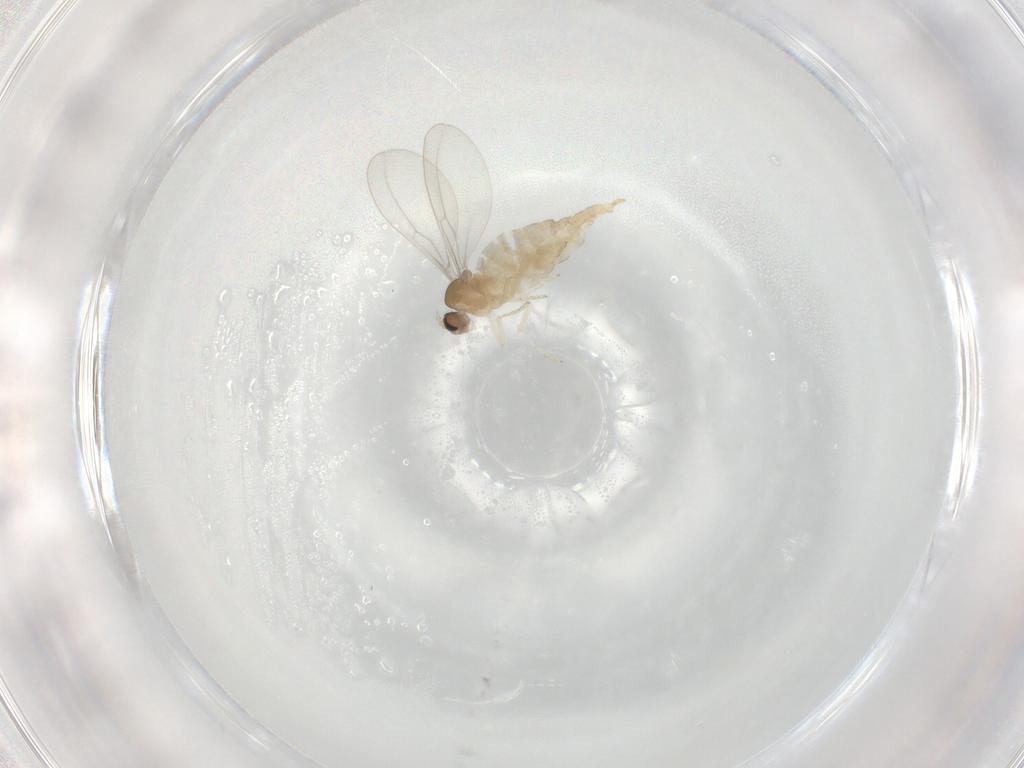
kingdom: Animalia
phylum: Arthropoda
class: Insecta
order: Diptera
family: Cecidomyiidae
